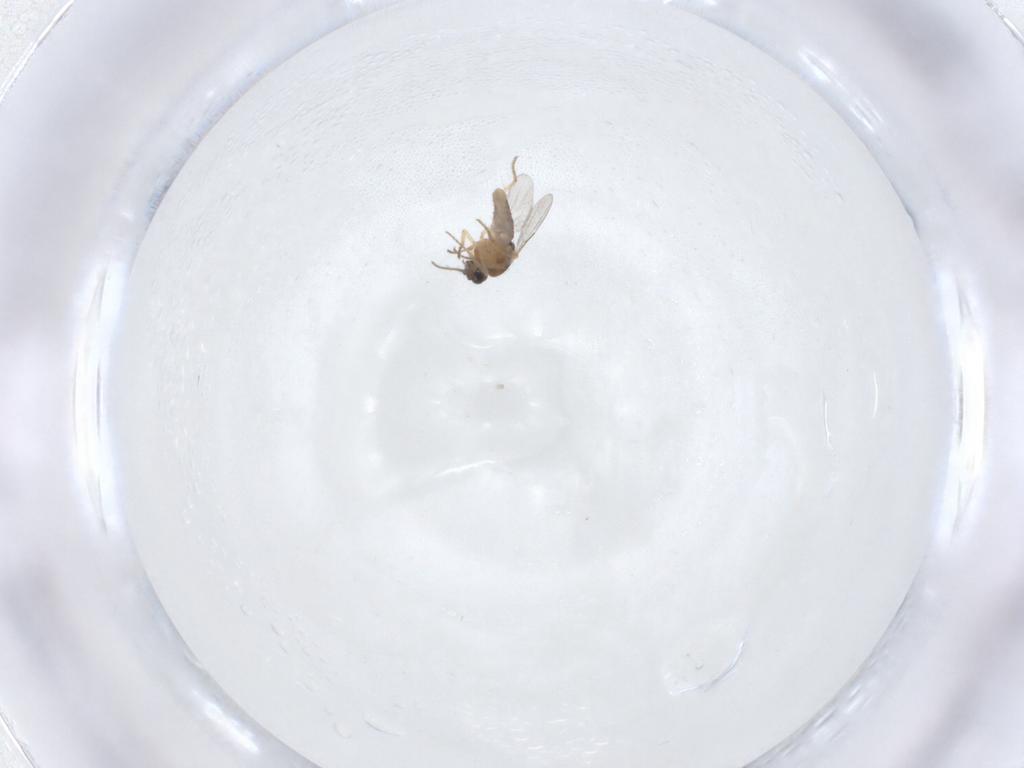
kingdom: Animalia
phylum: Arthropoda
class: Insecta
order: Diptera
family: Ceratopogonidae
